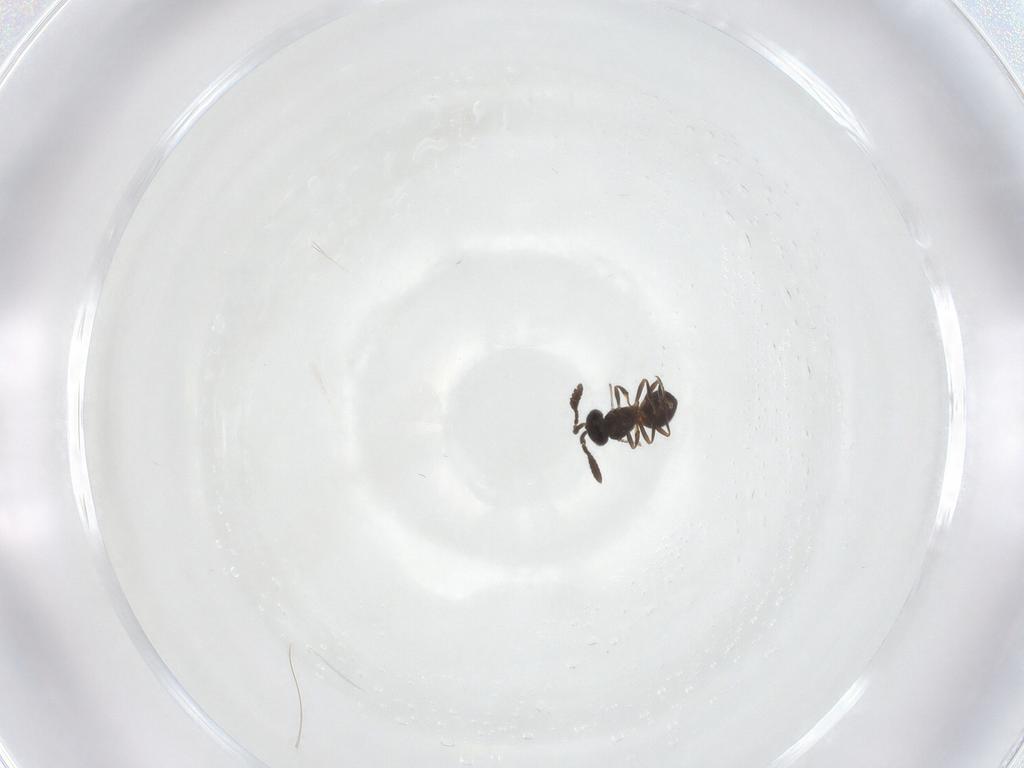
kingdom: Animalia
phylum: Arthropoda
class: Insecta
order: Hymenoptera
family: Scelionidae
